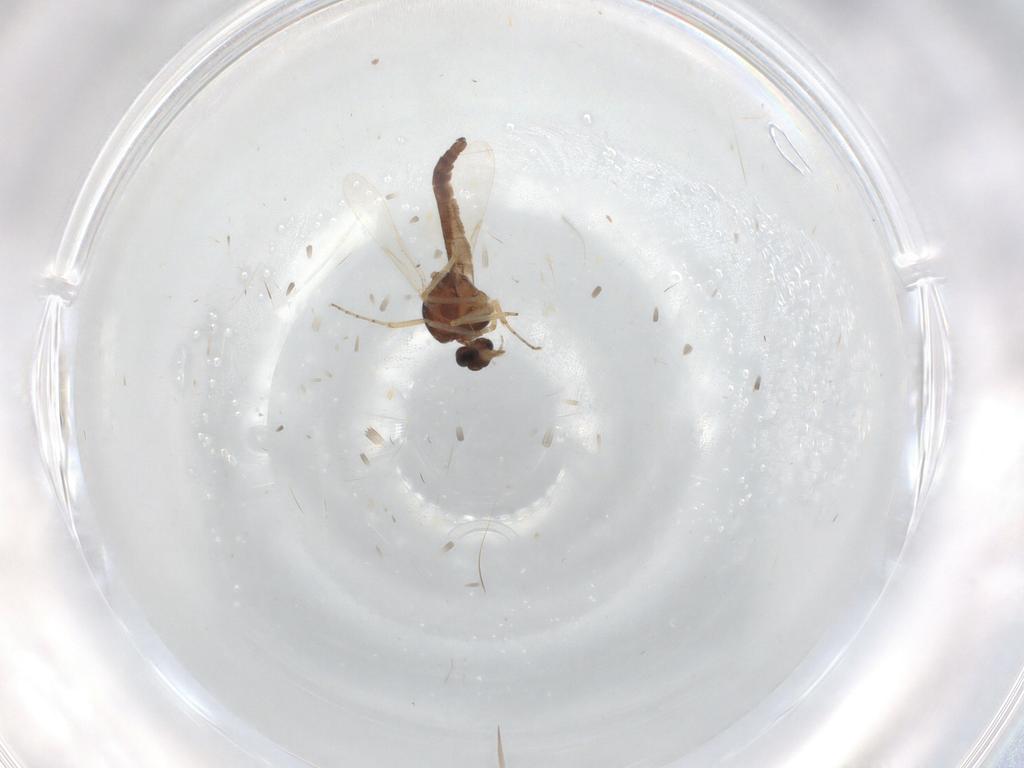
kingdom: Animalia
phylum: Arthropoda
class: Insecta
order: Diptera
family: Ceratopogonidae
